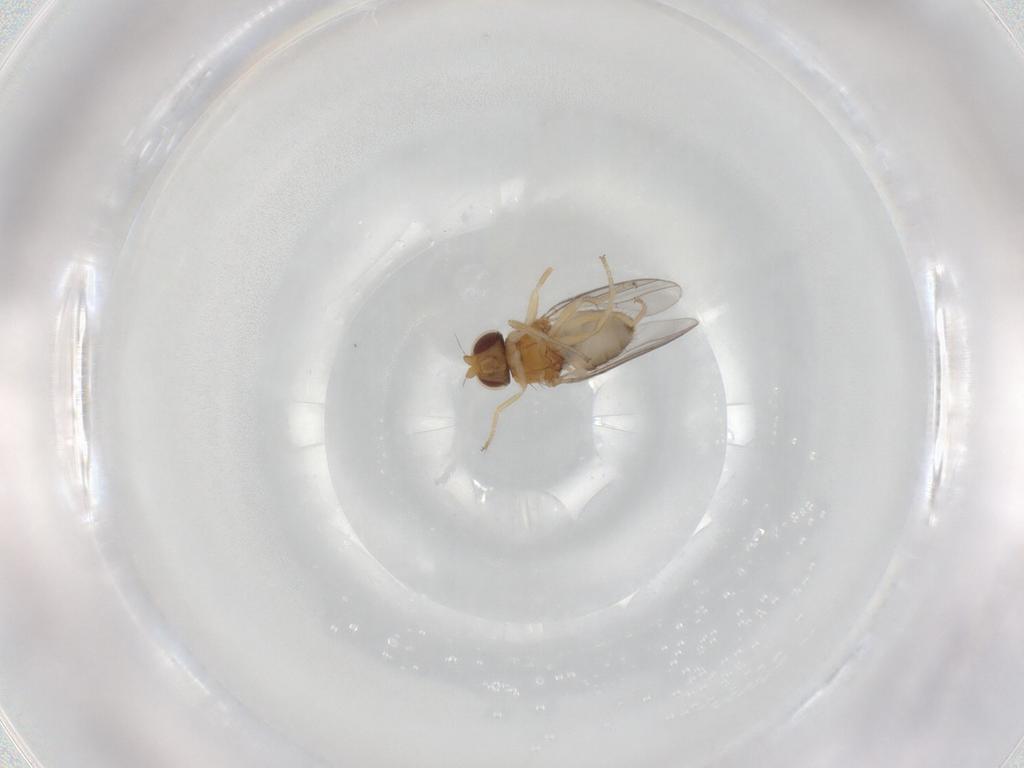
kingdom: Animalia
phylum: Arthropoda
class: Insecta
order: Diptera
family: Chloropidae
